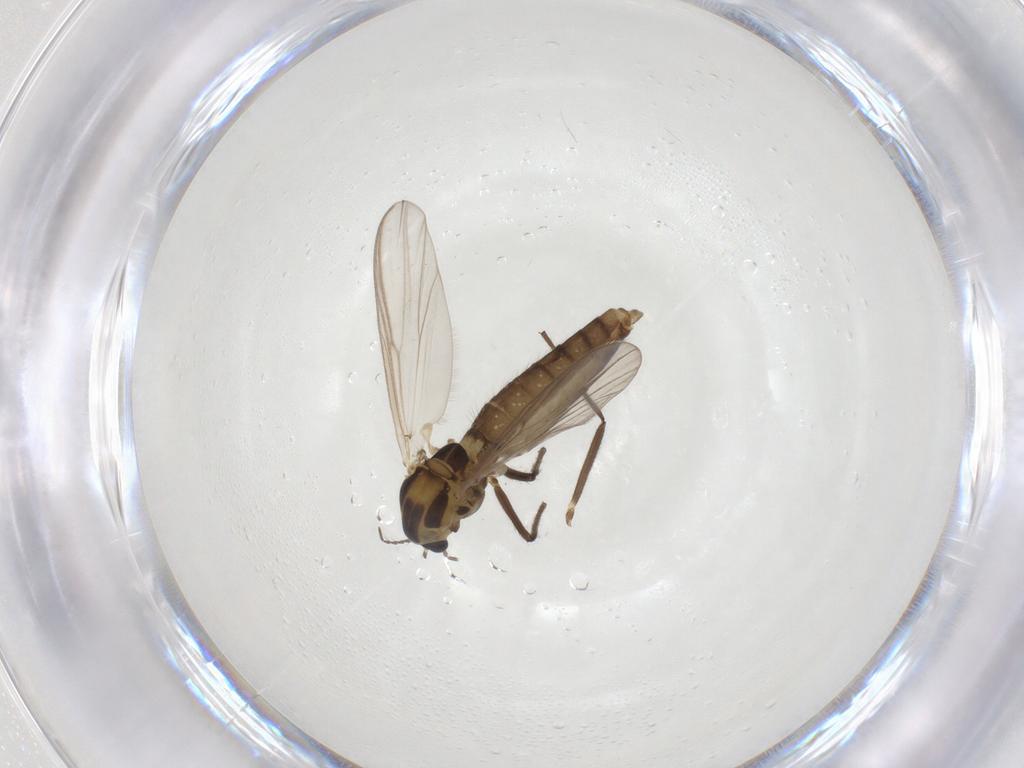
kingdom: Animalia
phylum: Arthropoda
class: Insecta
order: Diptera
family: Chironomidae
